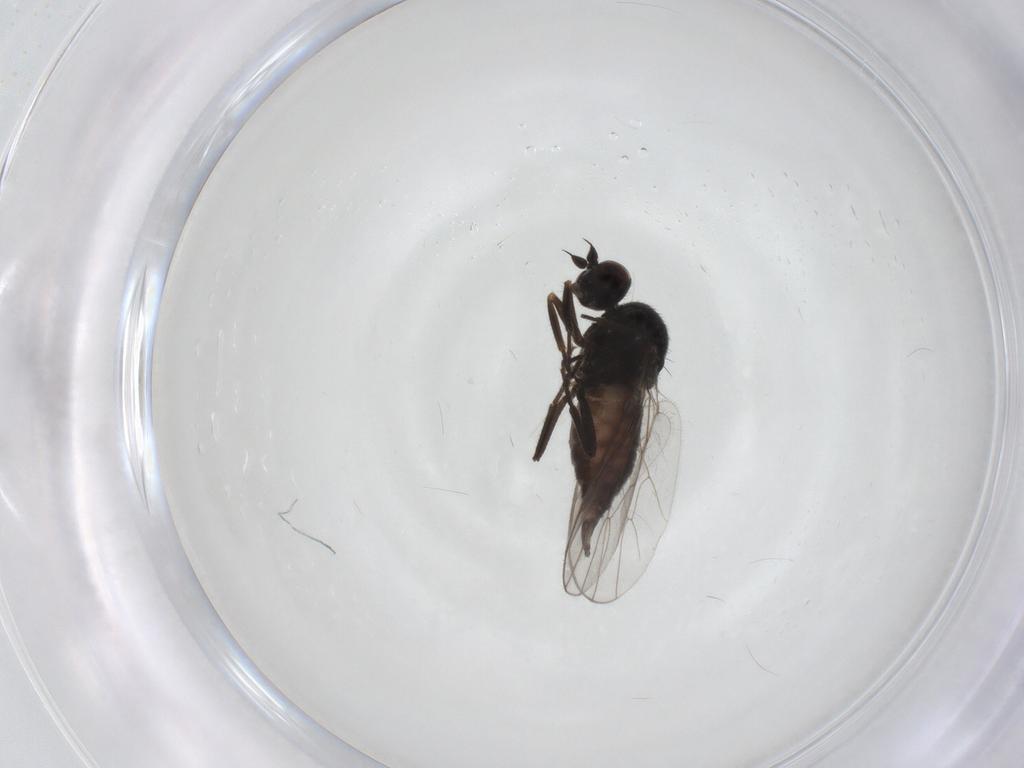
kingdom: Animalia
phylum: Arthropoda
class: Insecta
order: Diptera
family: Hybotidae
